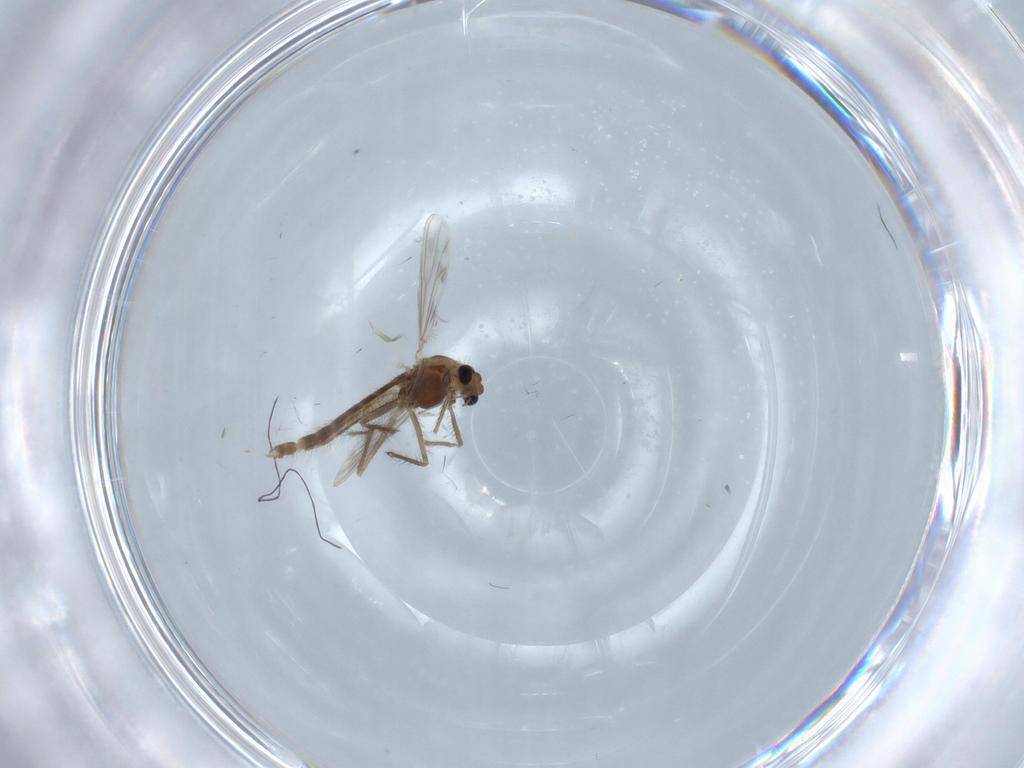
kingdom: Animalia
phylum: Arthropoda
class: Insecta
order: Diptera
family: Chironomidae
